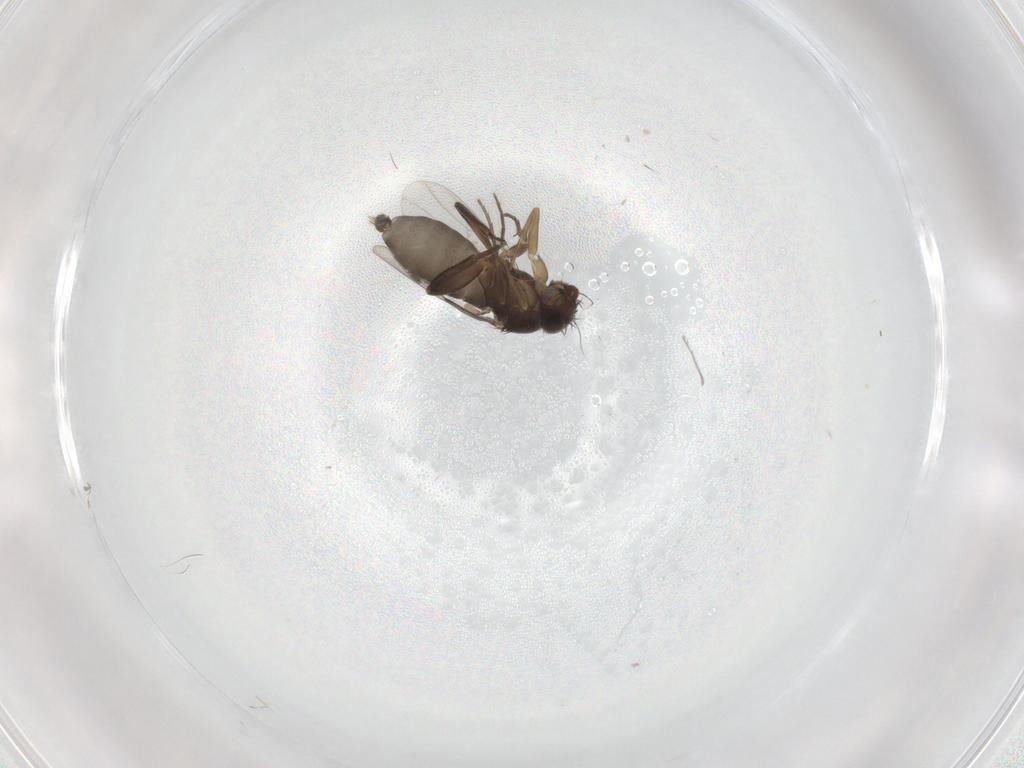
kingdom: Animalia
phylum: Arthropoda
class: Insecta
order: Diptera
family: Phoridae
